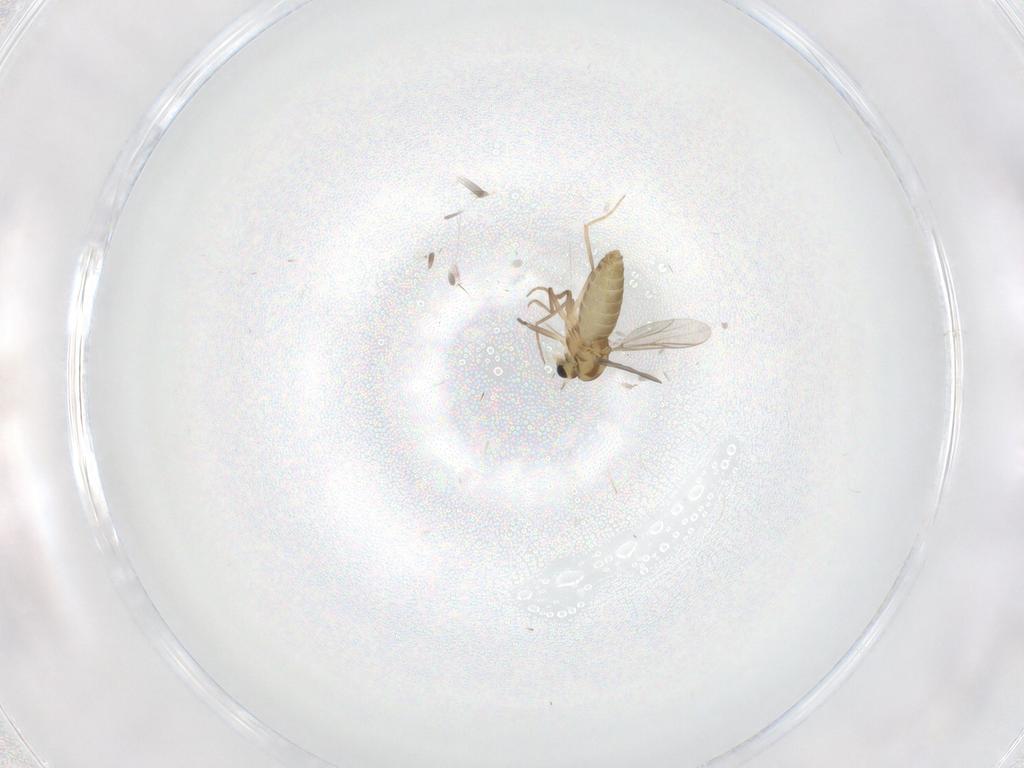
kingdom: Animalia
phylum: Arthropoda
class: Insecta
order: Diptera
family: Chironomidae
